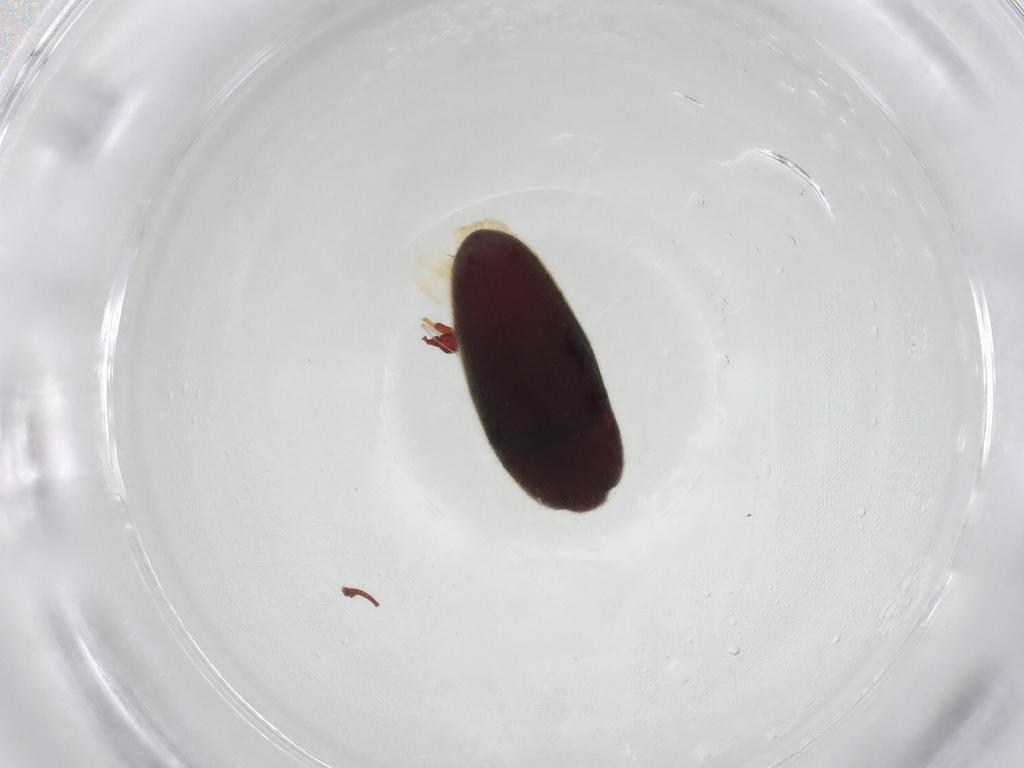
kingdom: Animalia
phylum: Arthropoda
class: Insecta
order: Coleoptera
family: Throscidae
